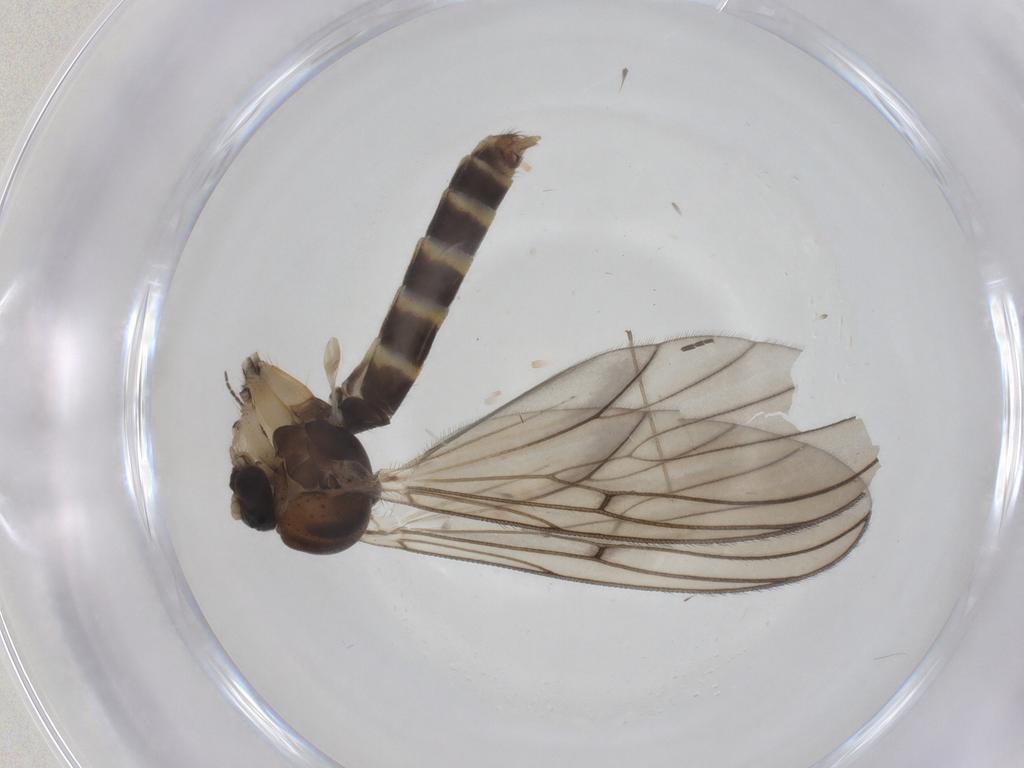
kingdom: Animalia
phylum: Arthropoda
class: Insecta
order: Diptera
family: Mycetophilidae
